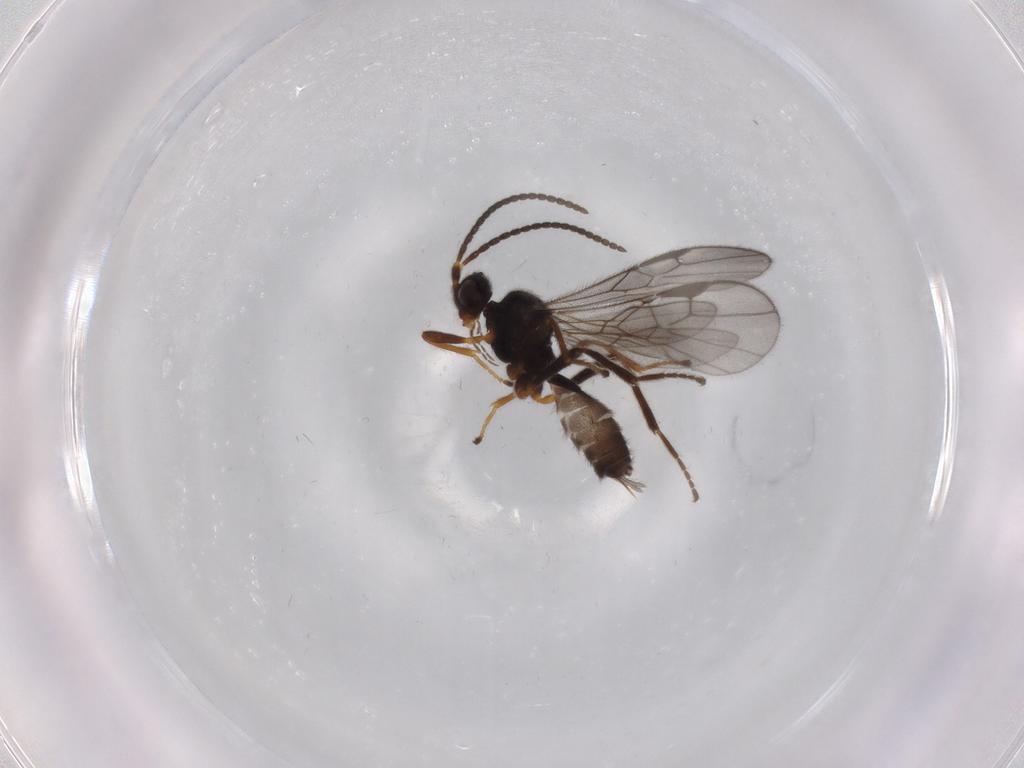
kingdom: Animalia
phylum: Arthropoda
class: Insecta
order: Hymenoptera
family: Braconidae
